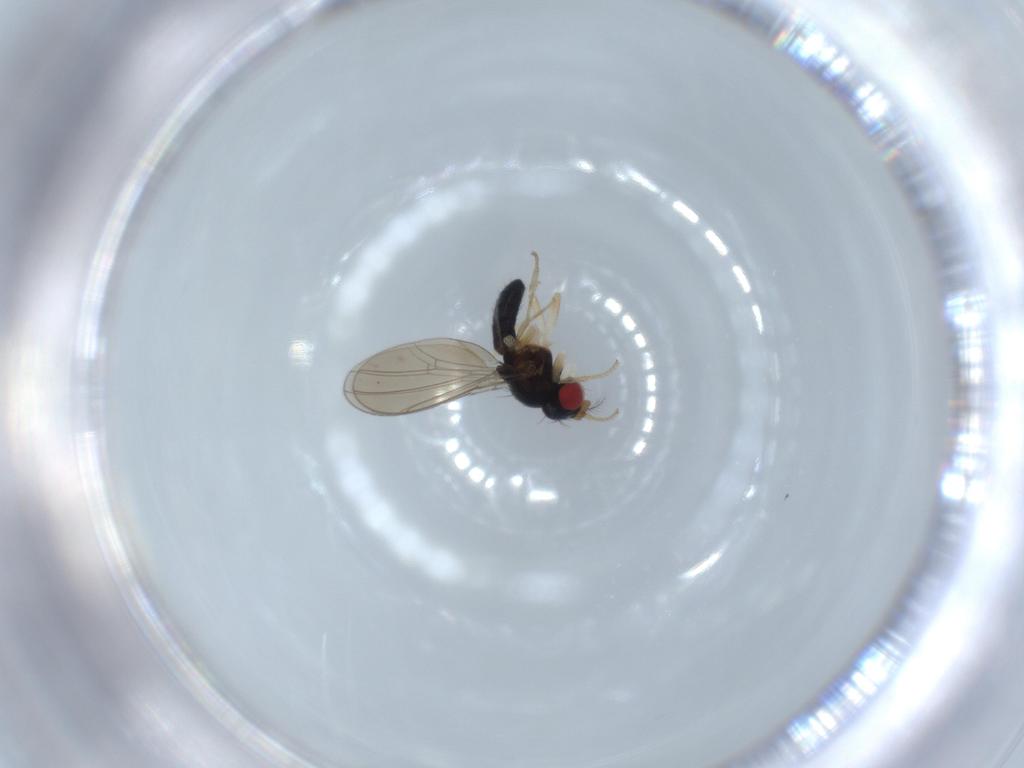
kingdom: Animalia
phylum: Arthropoda
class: Insecta
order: Diptera
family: Drosophilidae
